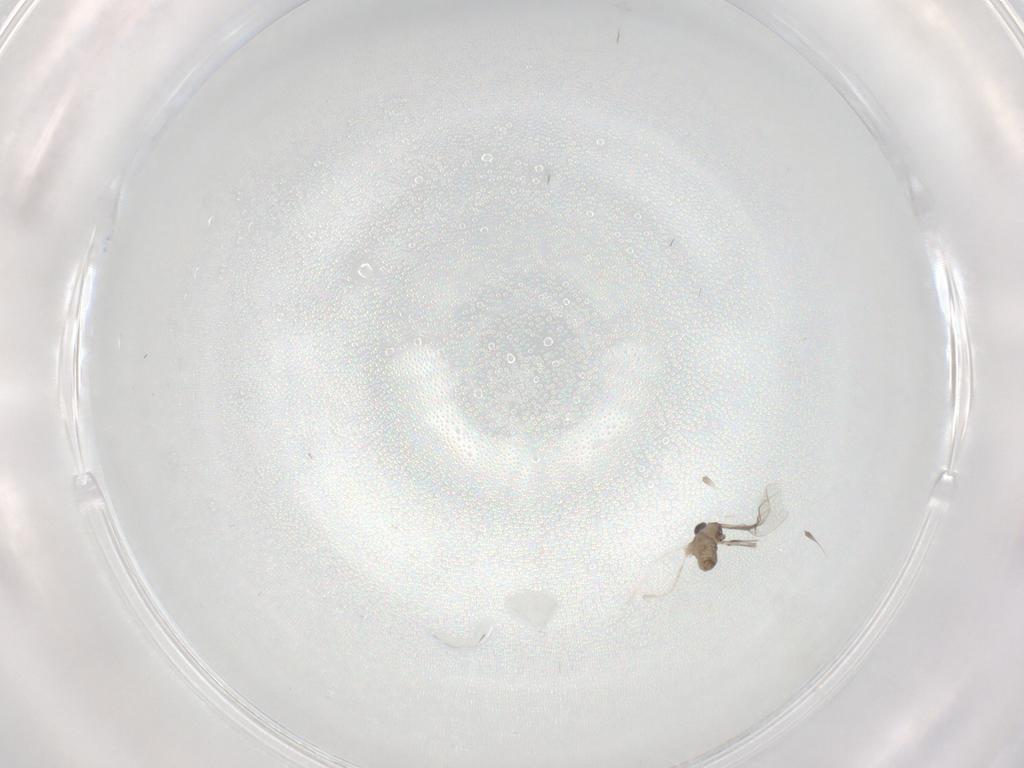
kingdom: Animalia
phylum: Arthropoda
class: Insecta
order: Diptera
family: Cecidomyiidae
